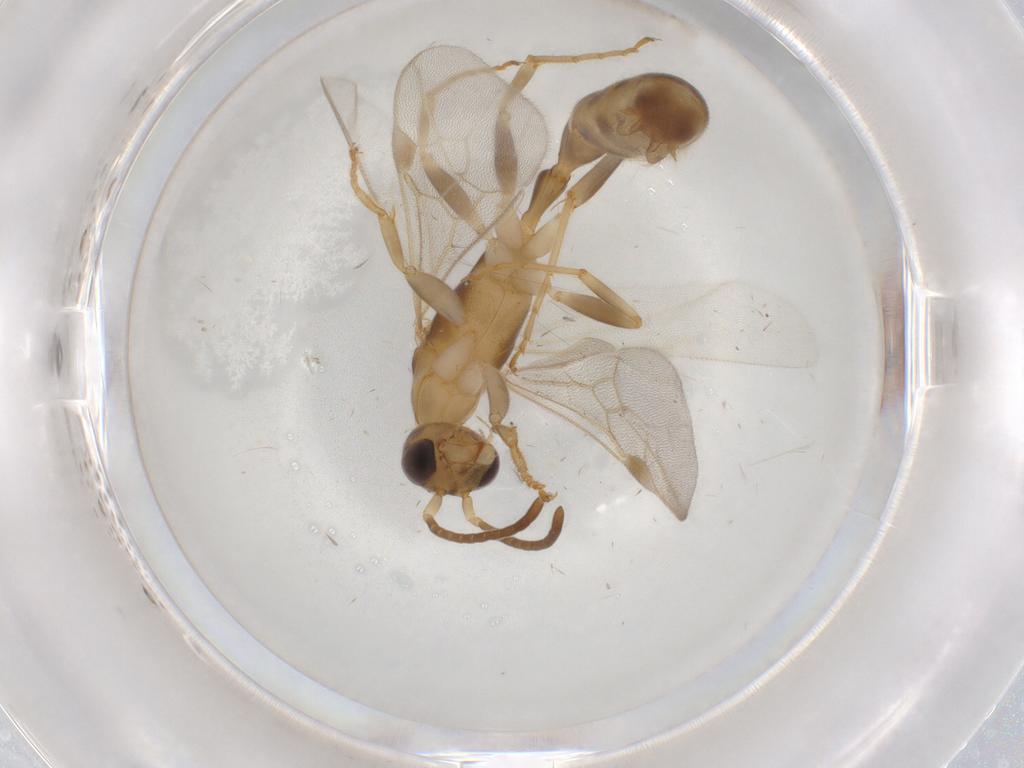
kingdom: Animalia
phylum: Arthropoda
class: Insecta
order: Hymenoptera
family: Formicidae
